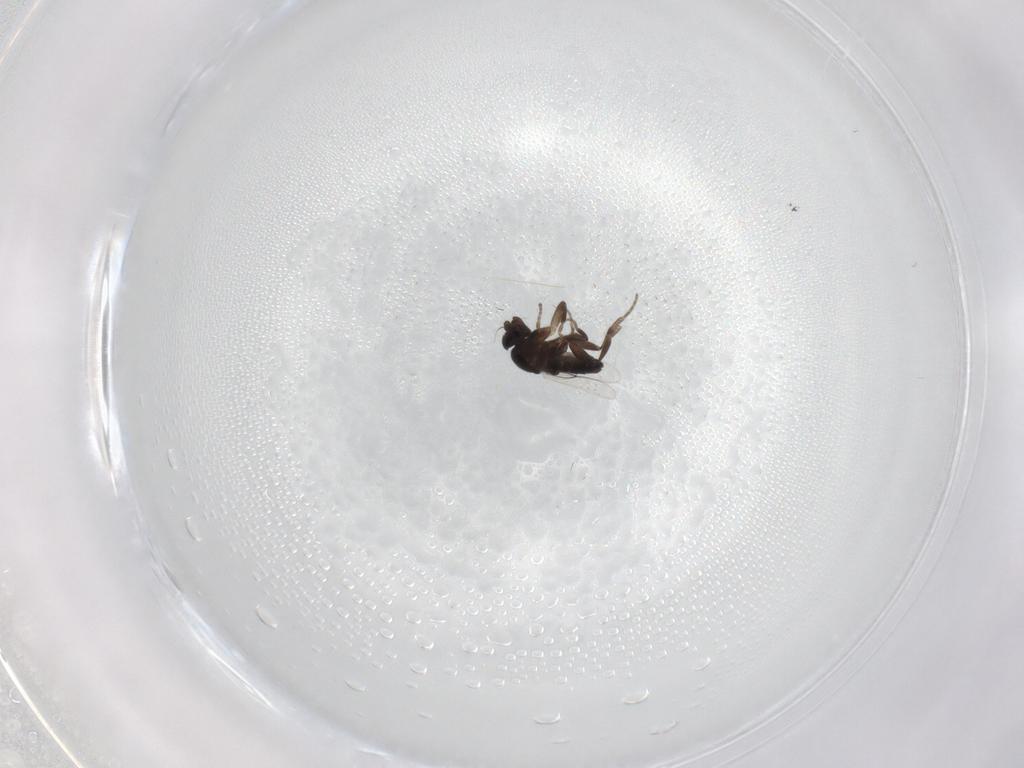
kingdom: Animalia
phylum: Arthropoda
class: Insecta
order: Diptera
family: Phoridae
